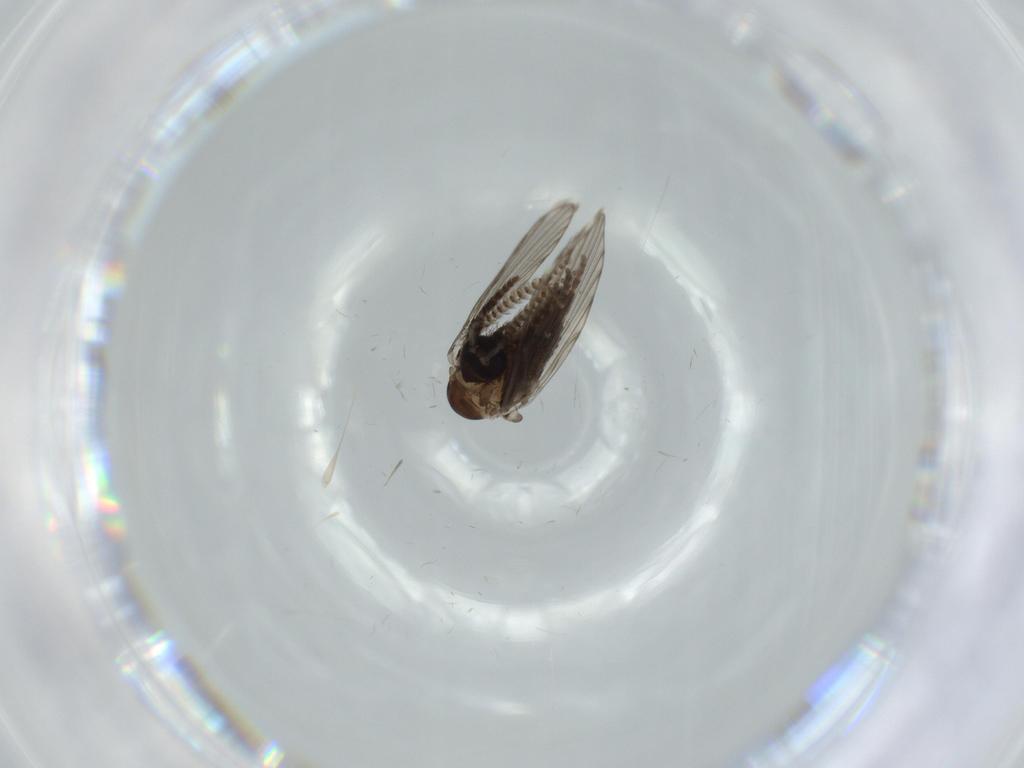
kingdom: Animalia
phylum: Arthropoda
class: Insecta
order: Diptera
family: Psychodidae
